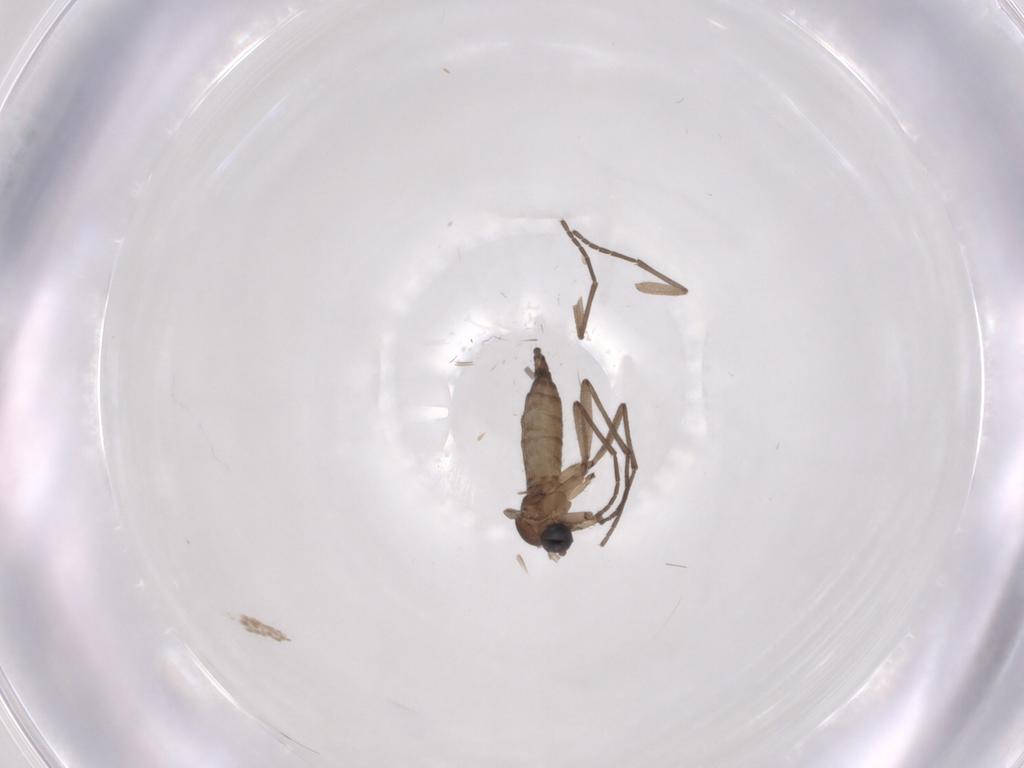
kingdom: Animalia
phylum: Arthropoda
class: Insecta
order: Diptera
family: Limoniidae
